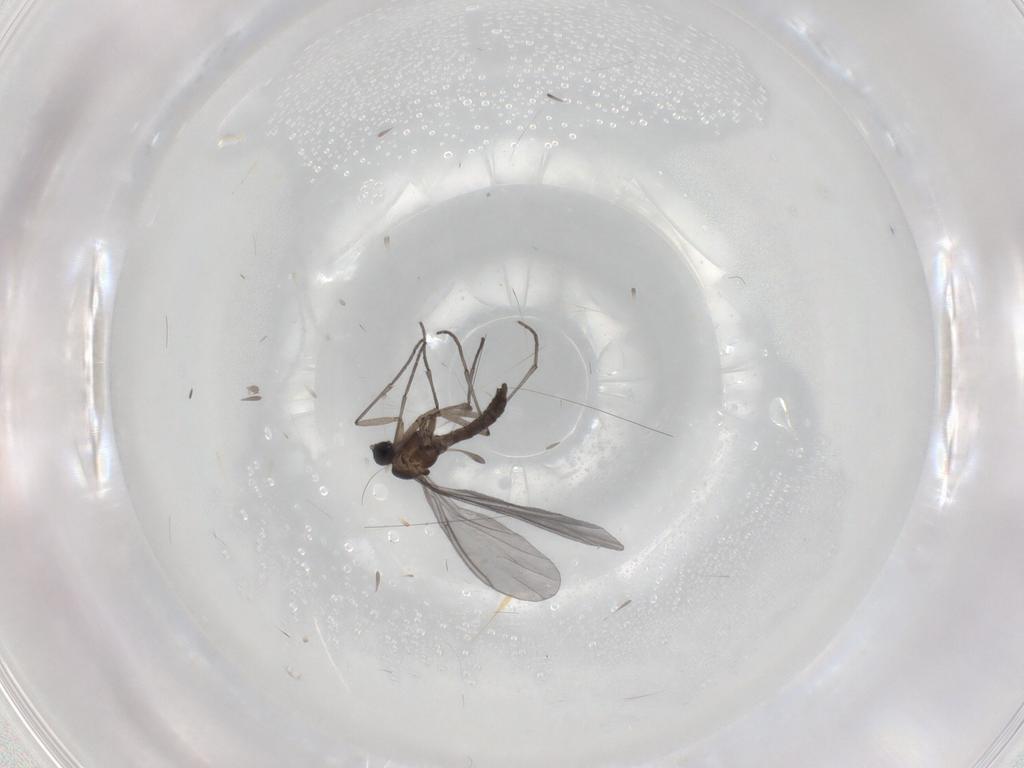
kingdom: Animalia
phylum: Arthropoda
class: Insecta
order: Diptera
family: Sciaridae
